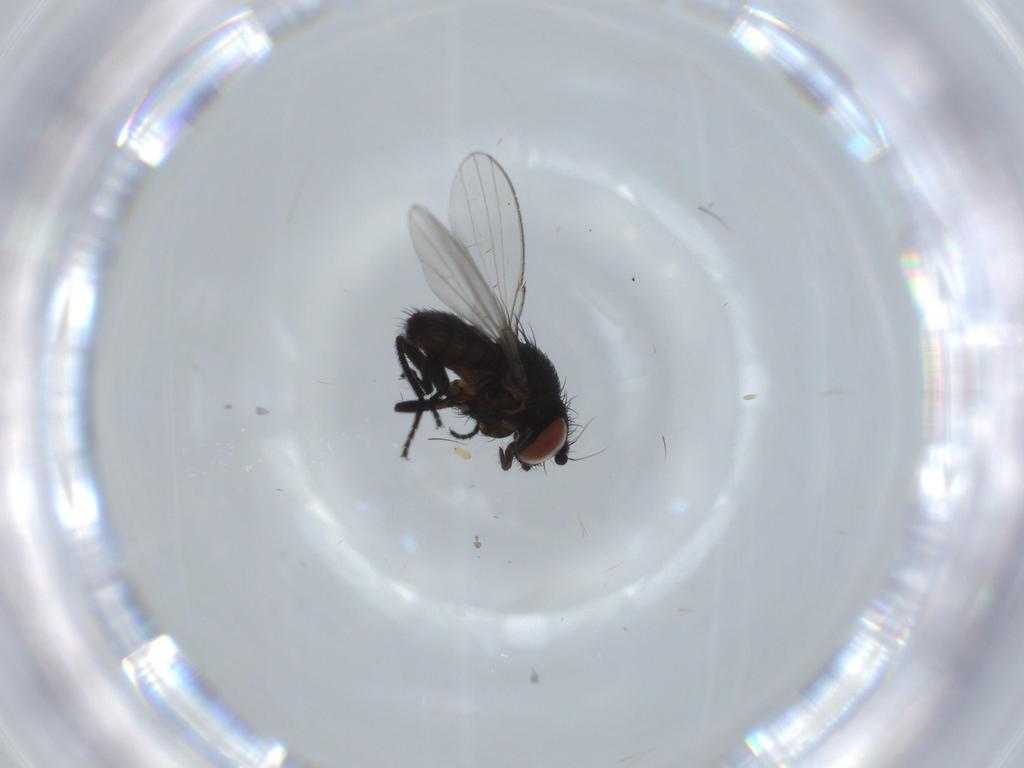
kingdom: Animalia
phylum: Arthropoda
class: Insecta
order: Diptera
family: Milichiidae
